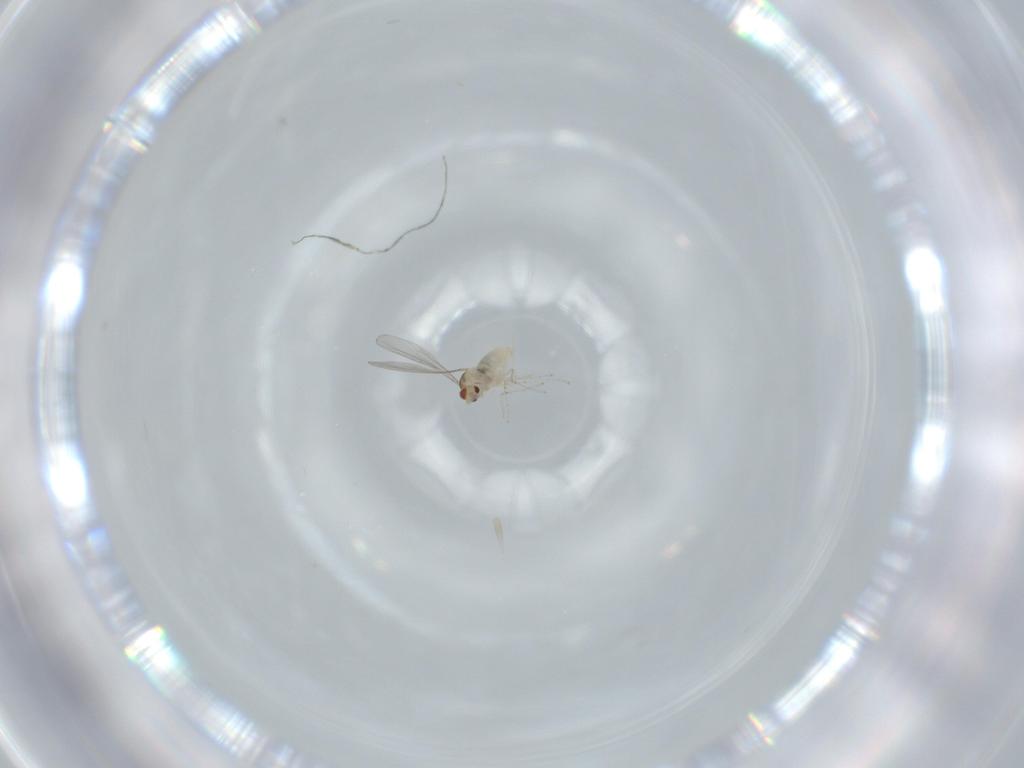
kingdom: Animalia
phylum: Arthropoda
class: Insecta
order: Diptera
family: Cecidomyiidae
